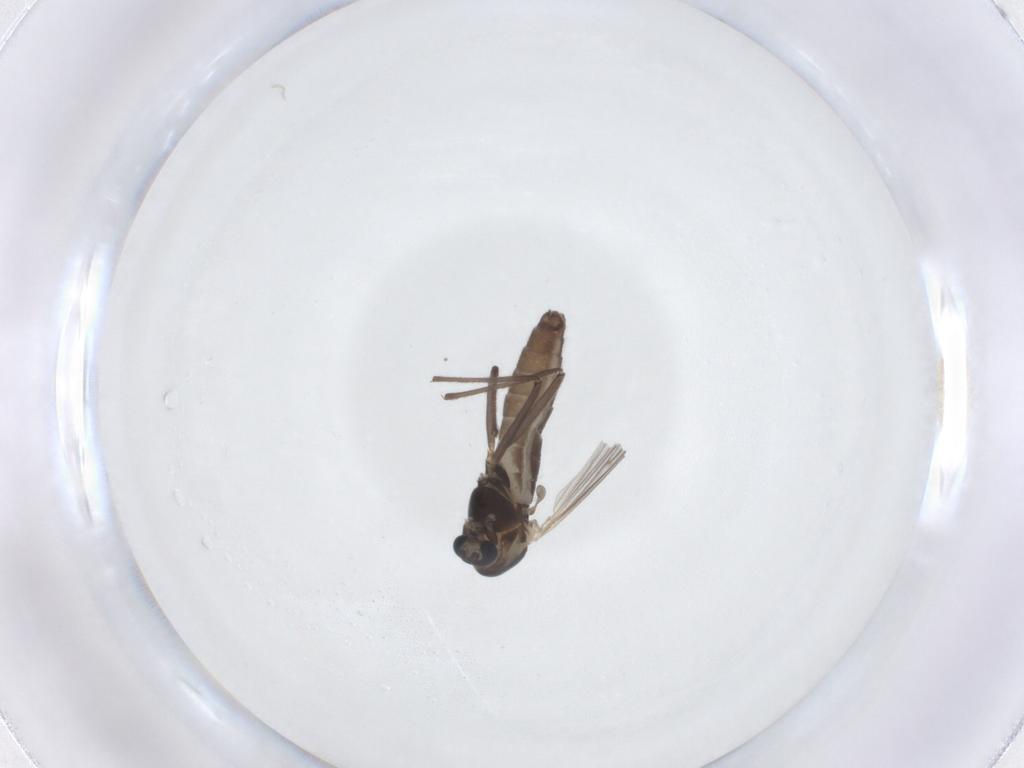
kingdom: Animalia
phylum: Arthropoda
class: Insecta
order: Diptera
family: Chironomidae
